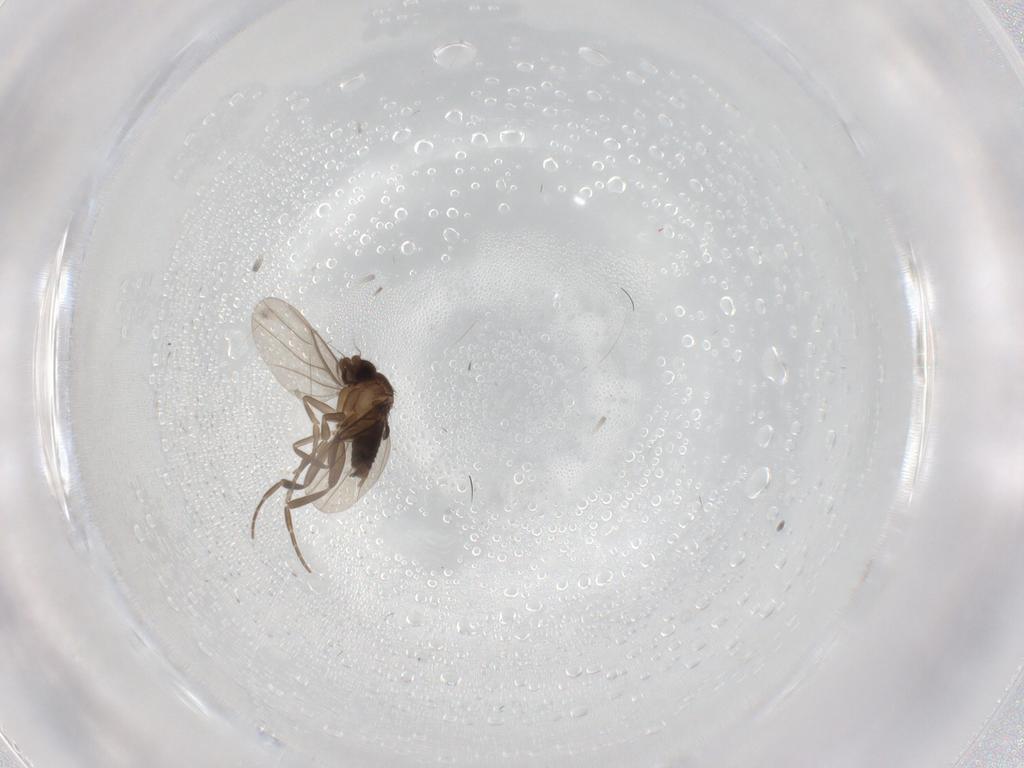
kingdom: Animalia
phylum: Arthropoda
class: Insecta
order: Diptera
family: Phoridae
